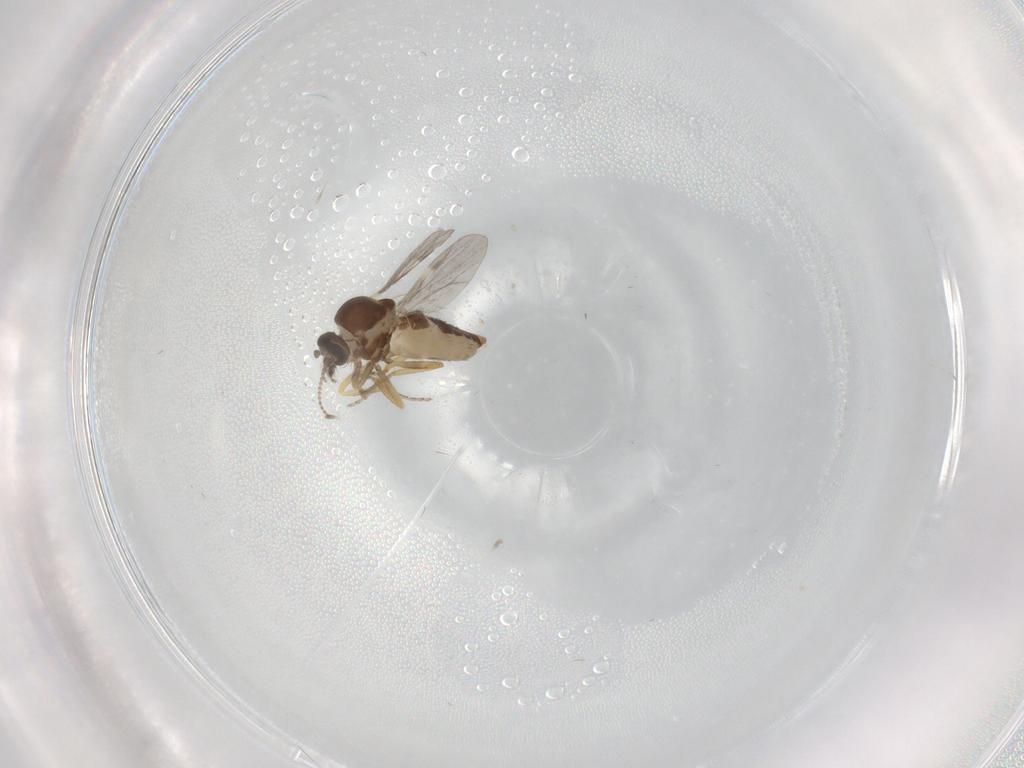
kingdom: Animalia
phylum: Arthropoda
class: Insecta
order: Diptera
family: Ceratopogonidae
